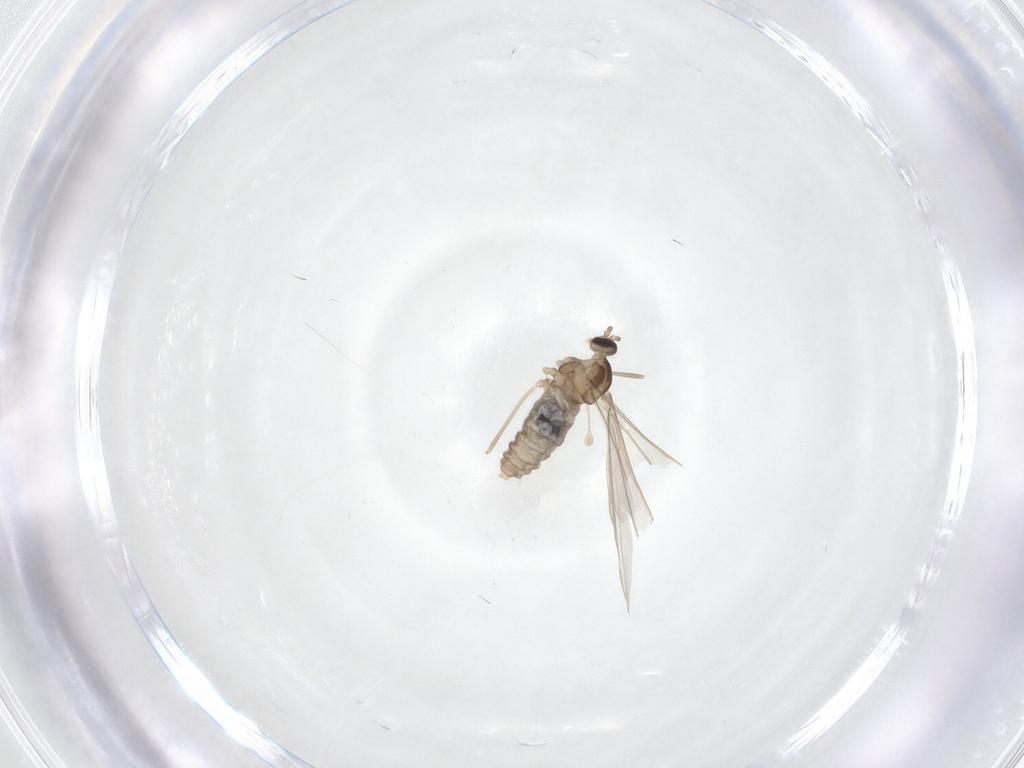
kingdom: Animalia
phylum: Arthropoda
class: Insecta
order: Diptera
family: Cecidomyiidae
